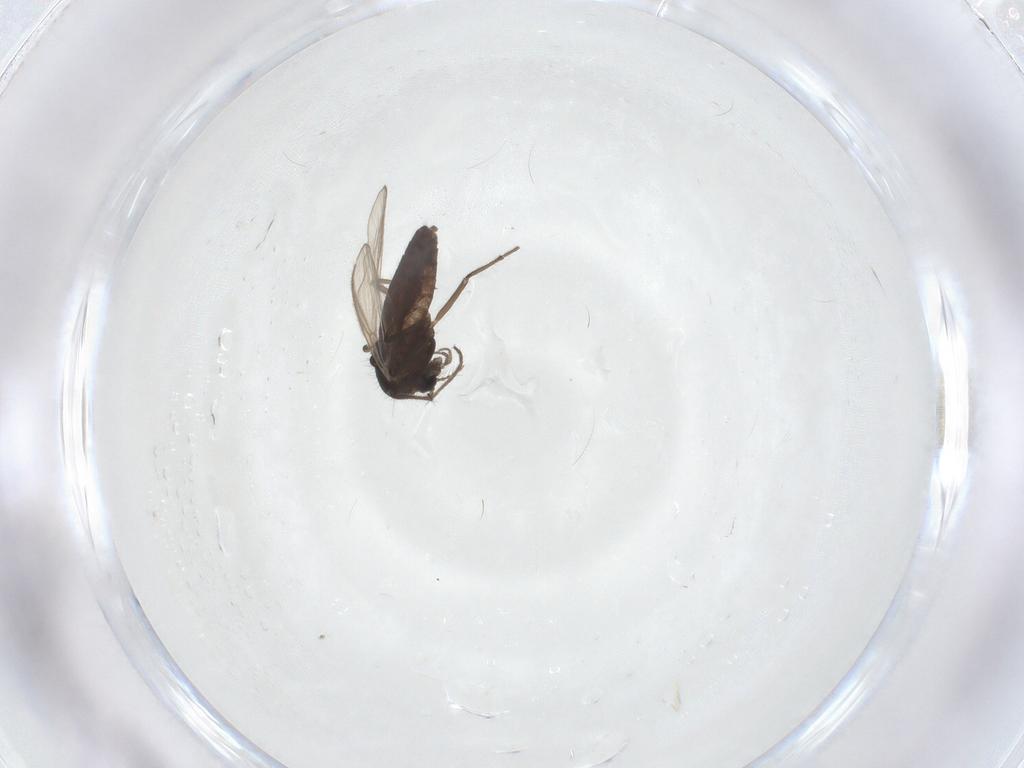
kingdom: Animalia
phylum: Arthropoda
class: Insecta
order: Diptera
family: Chironomidae
